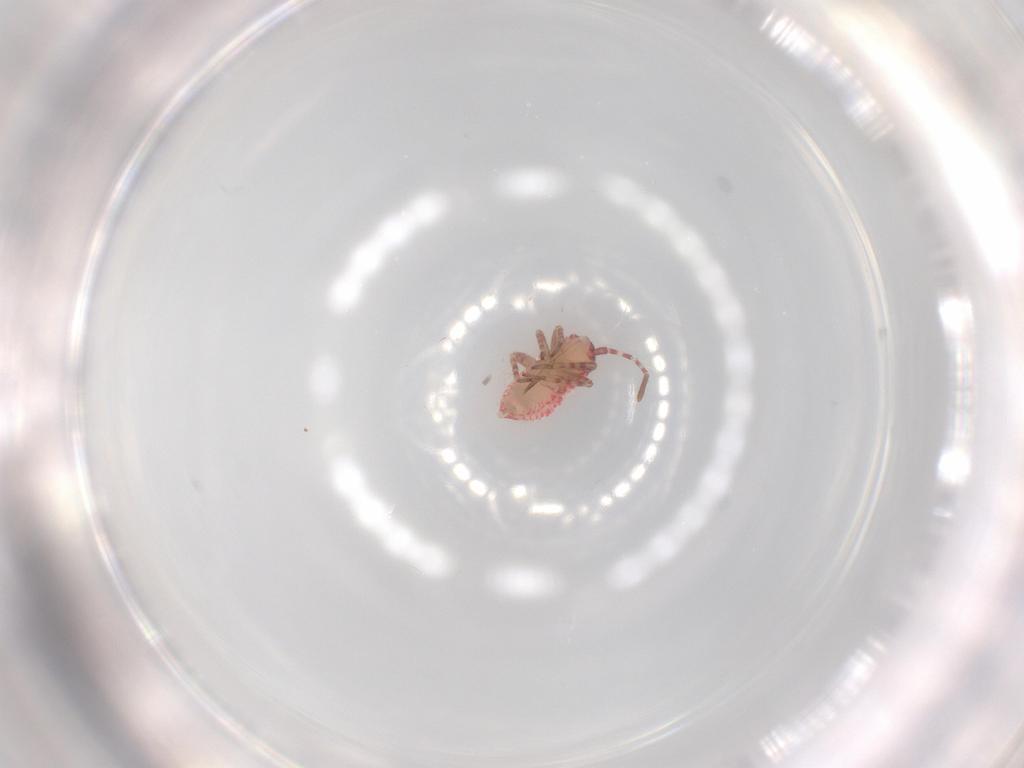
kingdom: Animalia
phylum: Arthropoda
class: Insecta
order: Hemiptera
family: Miridae
